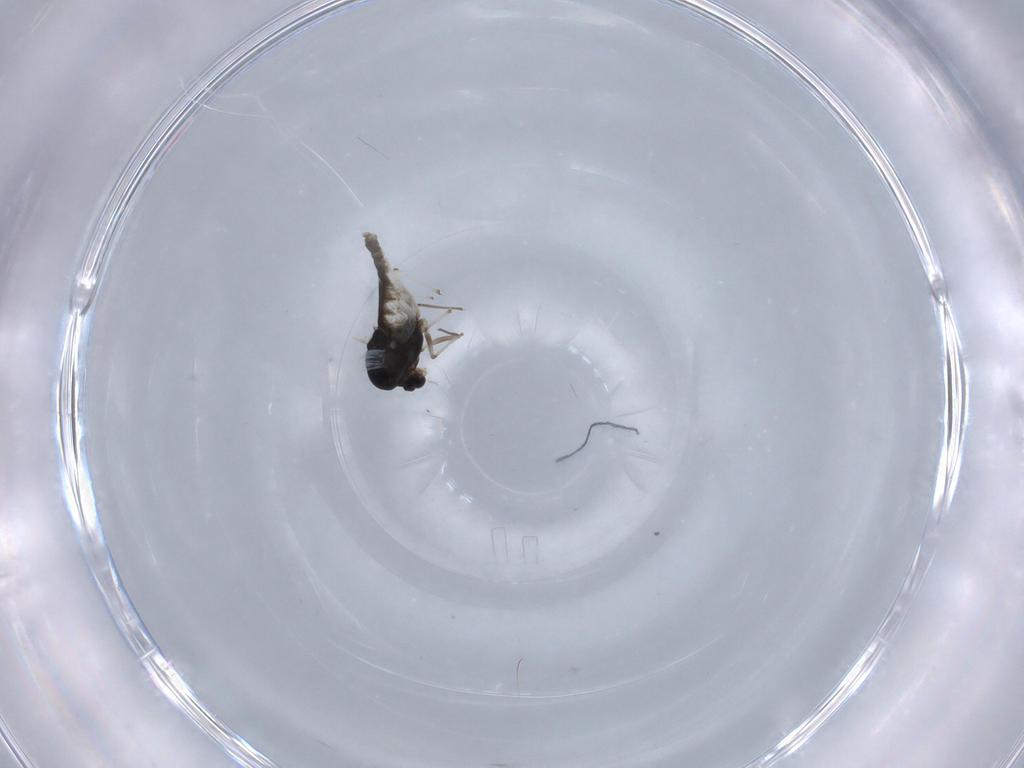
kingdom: Animalia
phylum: Arthropoda
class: Insecta
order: Diptera
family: Chironomidae
